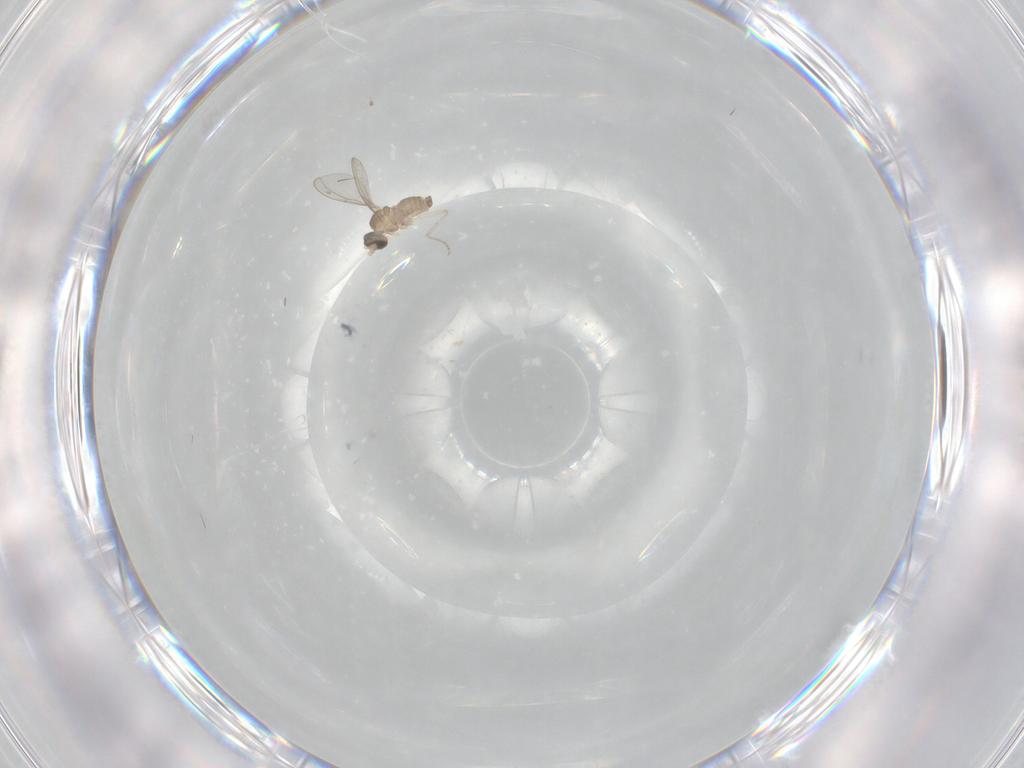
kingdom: Animalia
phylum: Arthropoda
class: Insecta
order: Diptera
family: Cecidomyiidae
